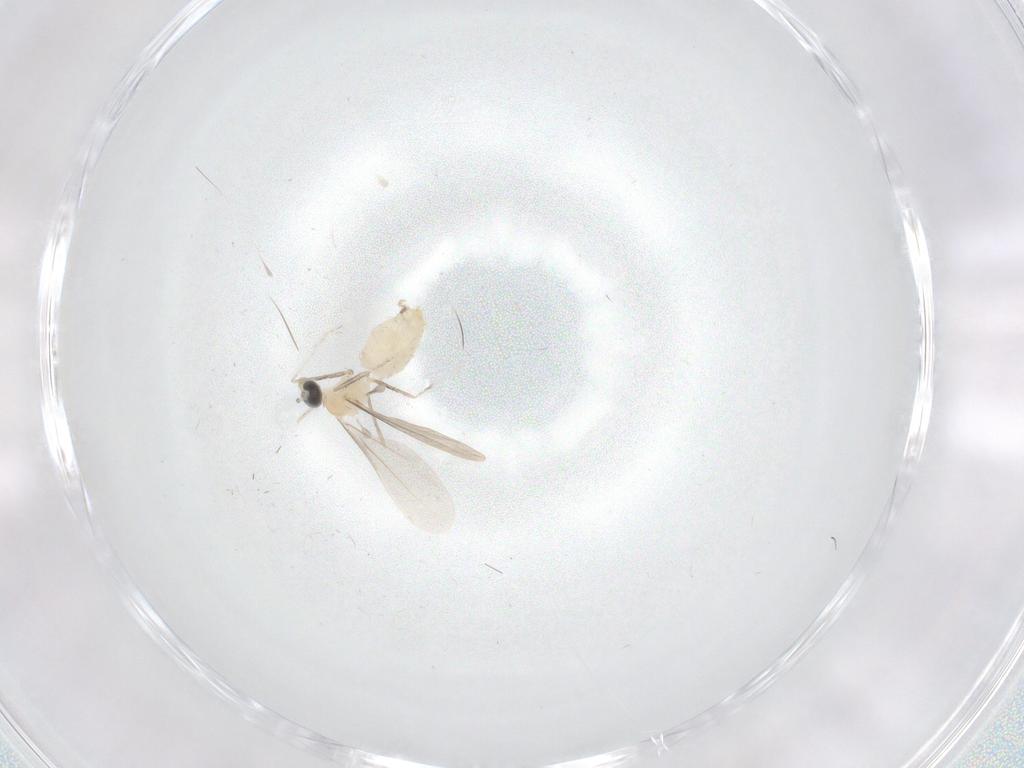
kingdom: Animalia
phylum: Arthropoda
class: Insecta
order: Diptera
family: Cecidomyiidae
